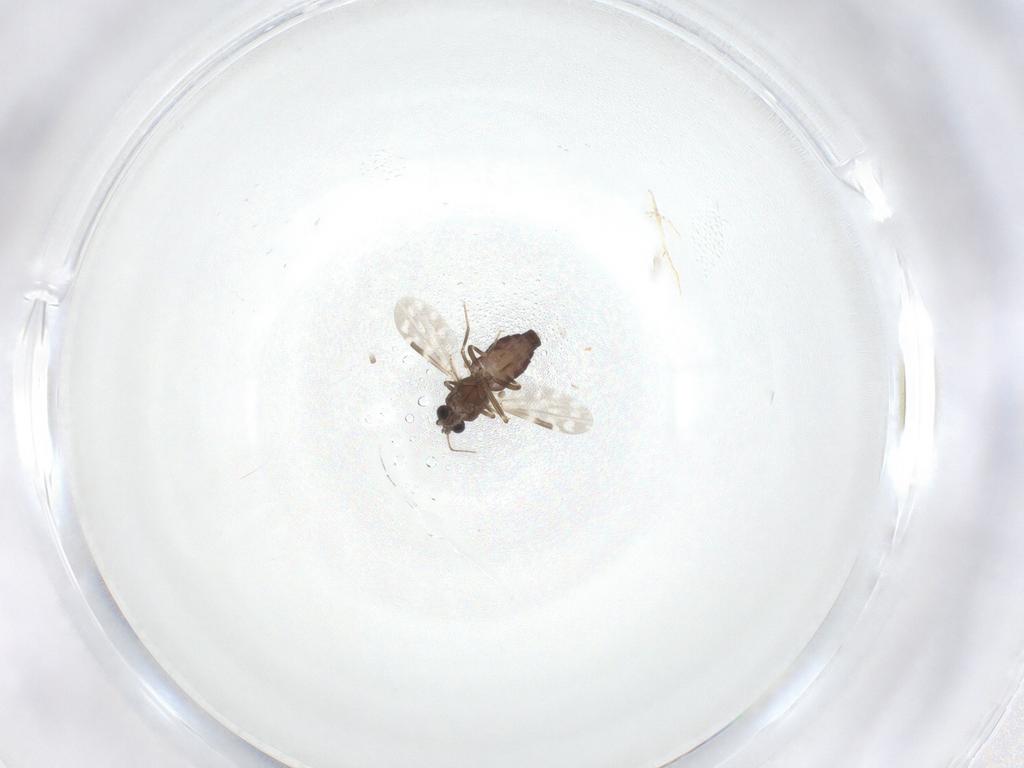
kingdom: Animalia
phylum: Arthropoda
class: Insecta
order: Diptera
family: Ceratopogonidae
